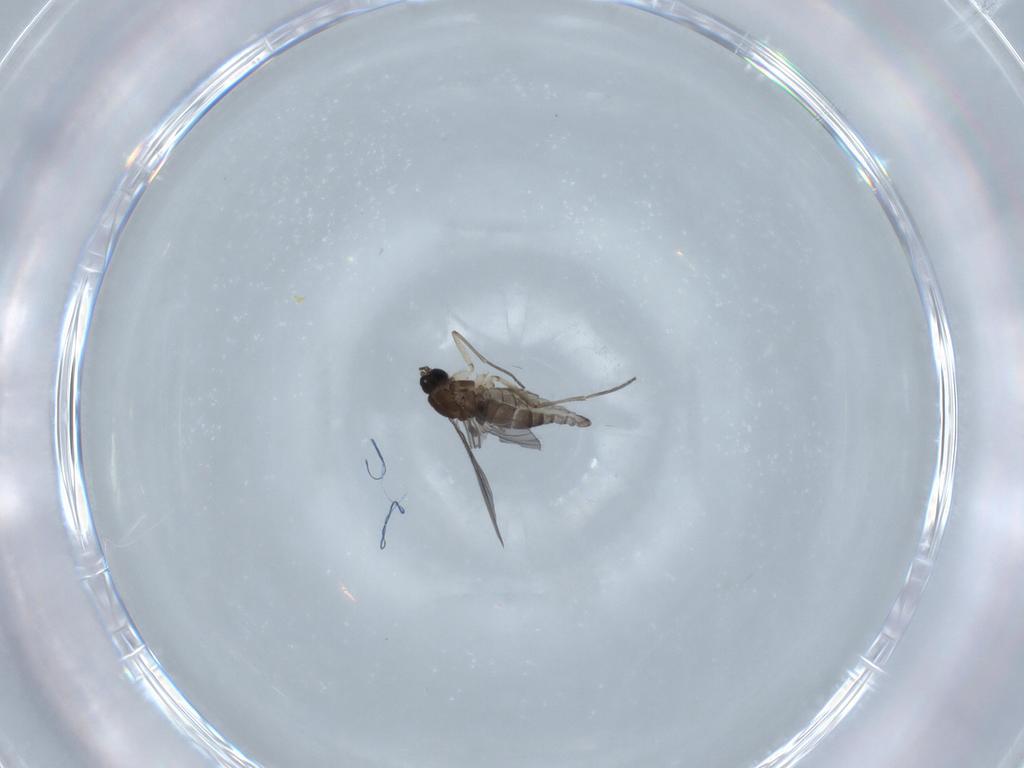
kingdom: Animalia
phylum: Arthropoda
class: Insecta
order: Diptera
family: Sciaridae
